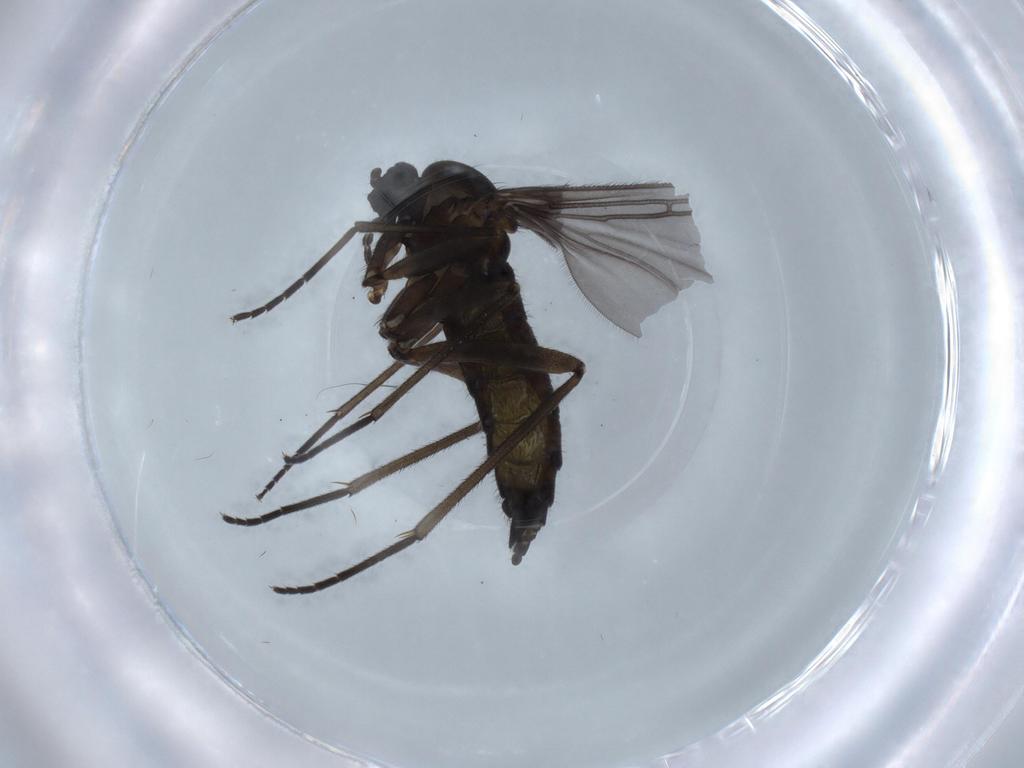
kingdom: Animalia
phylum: Arthropoda
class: Insecta
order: Diptera
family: Sciaridae
